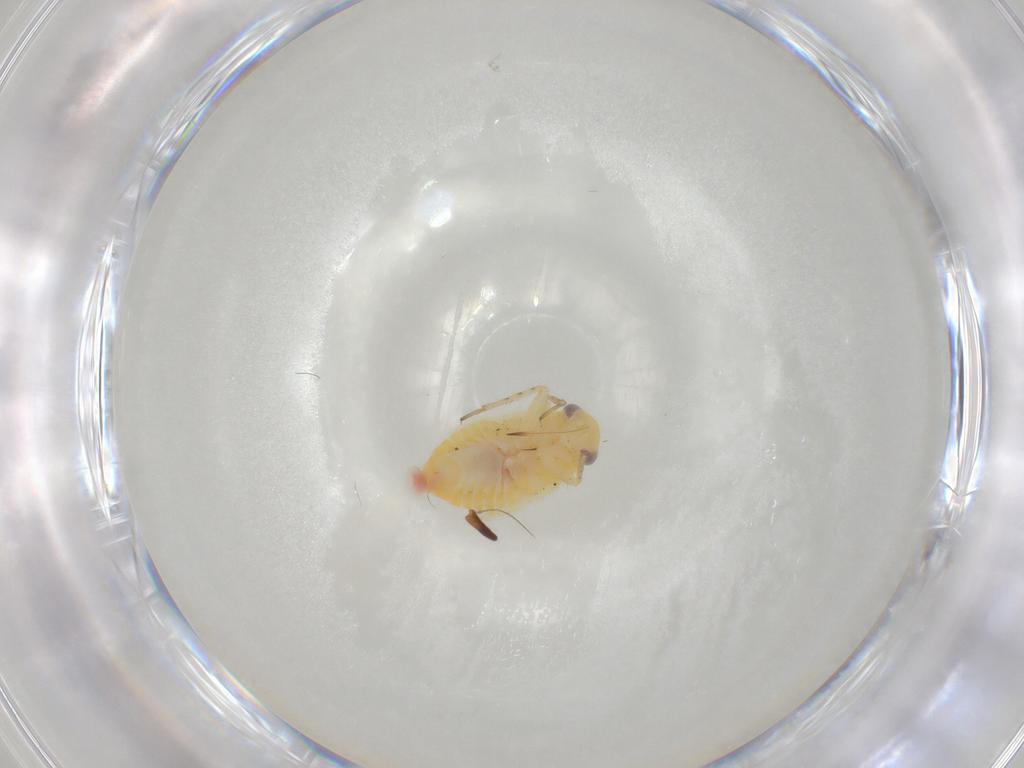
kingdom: Animalia
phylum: Arthropoda
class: Insecta
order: Hemiptera
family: Miridae
